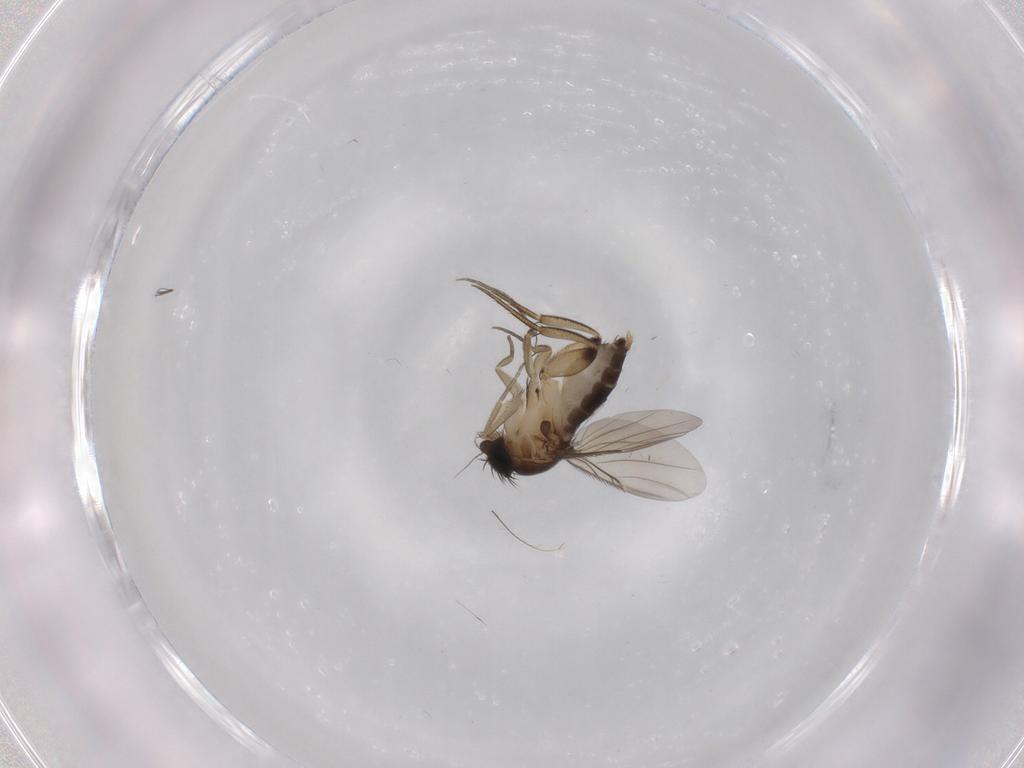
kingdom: Animalia
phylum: Arthropoda
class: Insecta
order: Diptera
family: Phoridae
